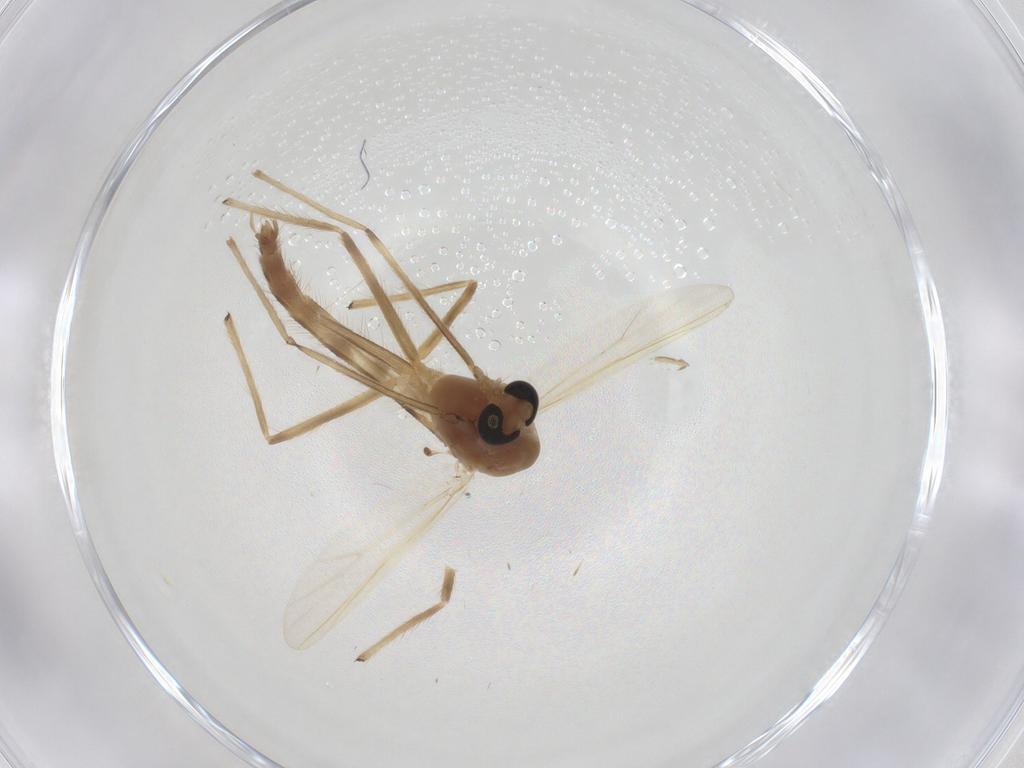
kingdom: Animalia
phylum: Arthropoda
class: Insecta
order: Diptera
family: Chironomidae
